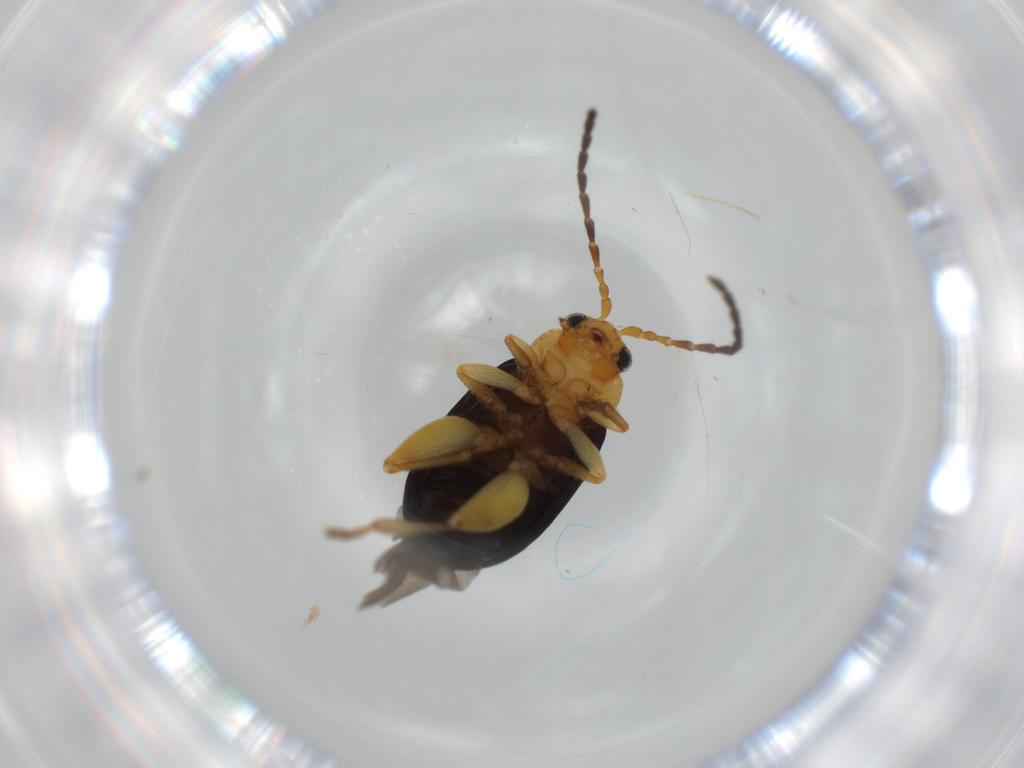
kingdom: Animalia
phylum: Arthropoda
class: Insecta
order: Coleoptera
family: Chrysomelidae
